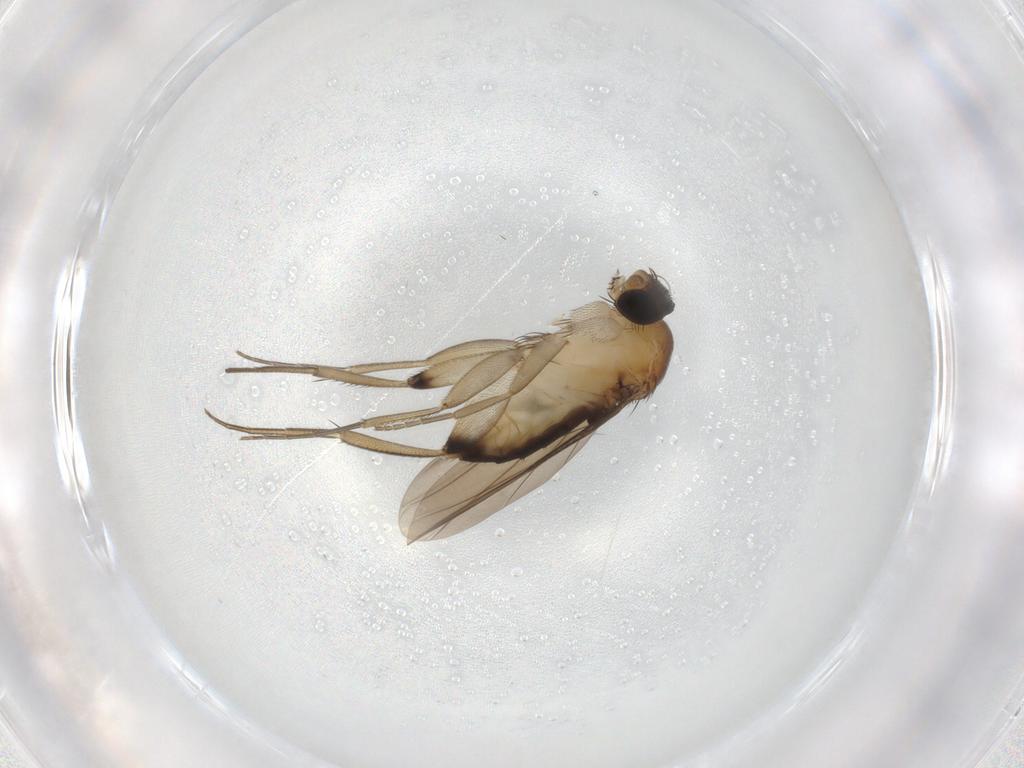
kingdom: Animalia
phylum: Arthropoda
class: Insecta
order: Diptera
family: Phoridae
